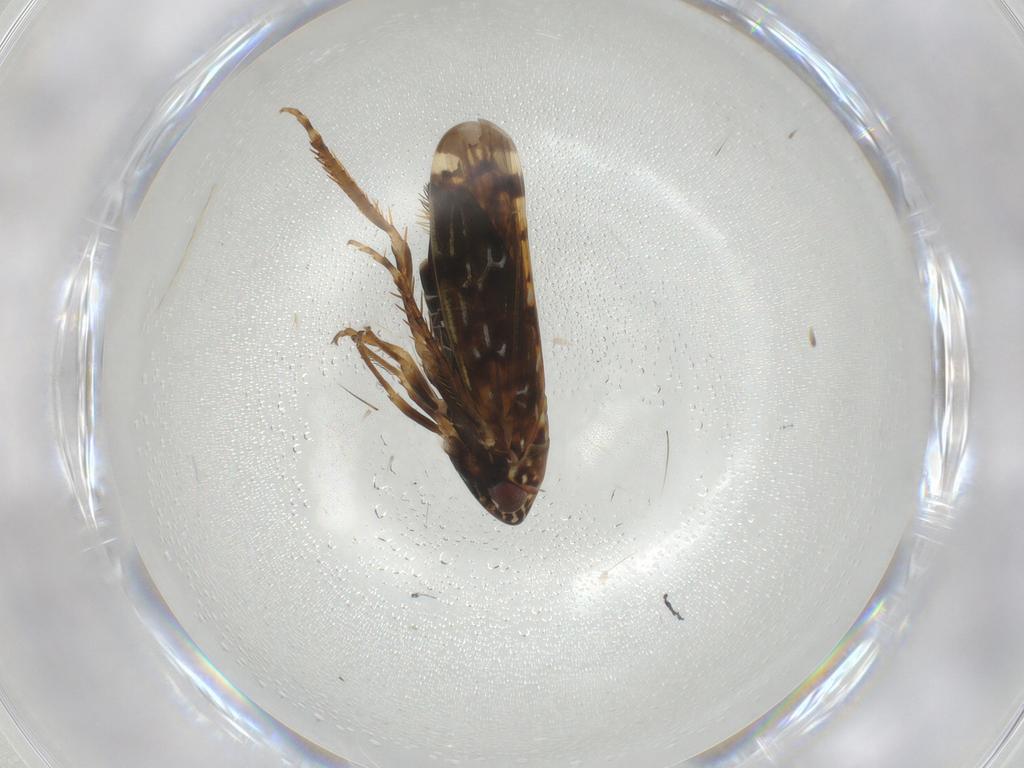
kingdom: Animalia
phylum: Arthropoda
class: Insecta
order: Hemiptera
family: Cicadellidae
